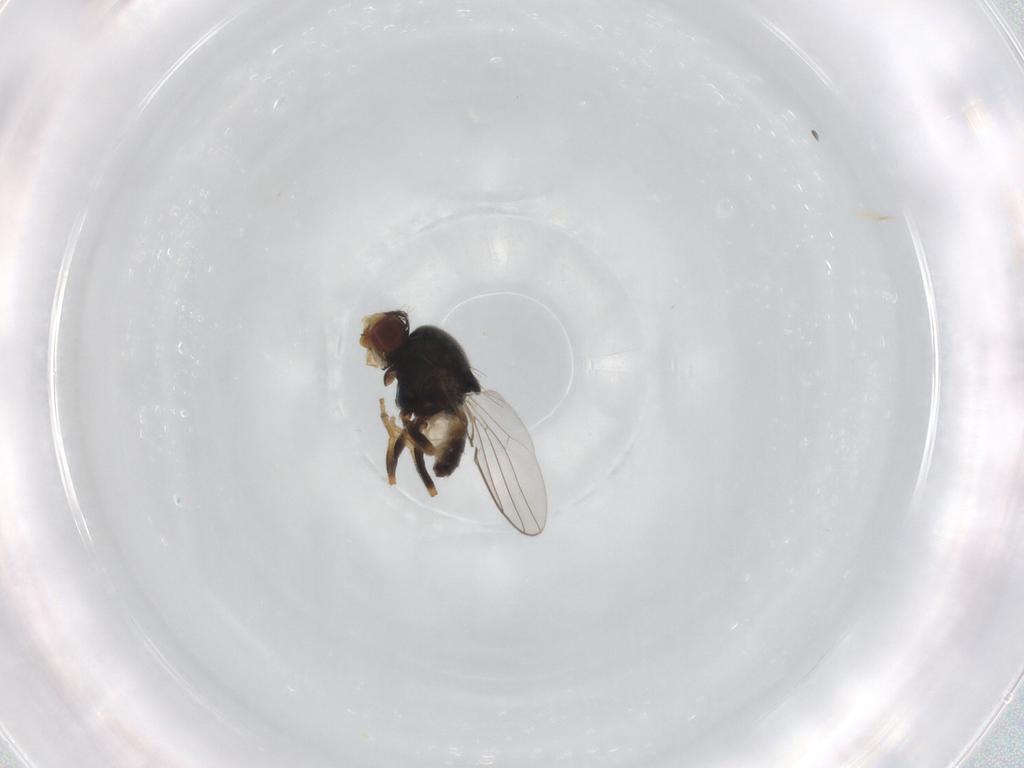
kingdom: Animalia
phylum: Arthropoda
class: Insecta
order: Diptera
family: Chloropidae
